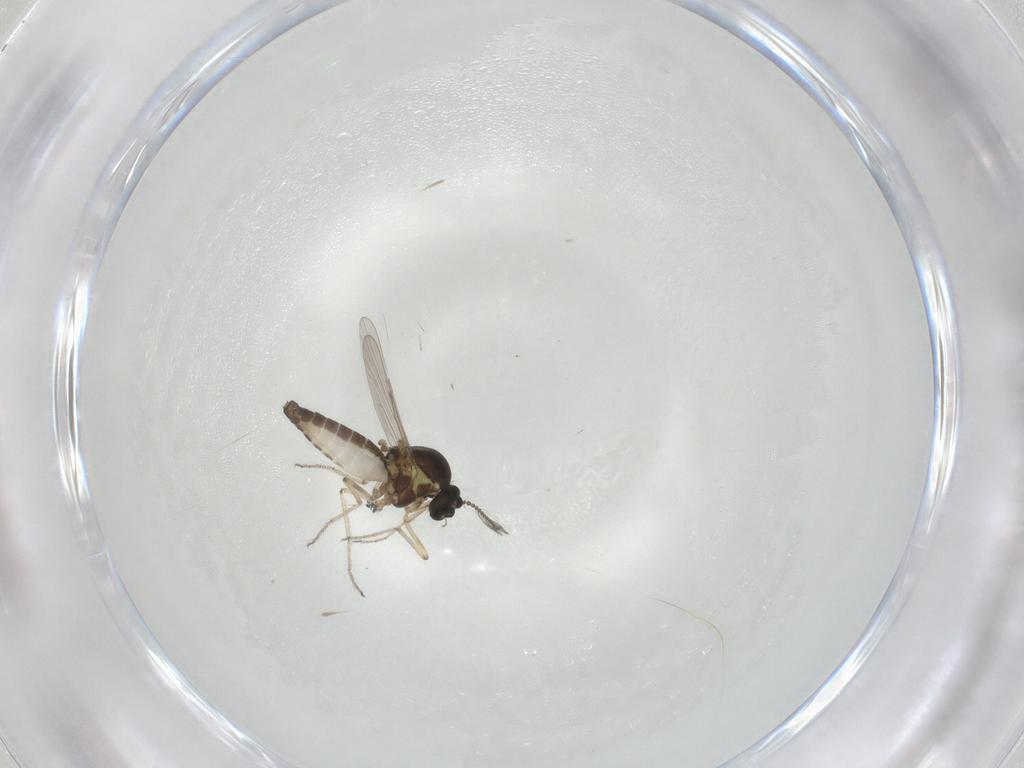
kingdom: Animalia
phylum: Arthropoda
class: Insecta
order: Diptera
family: Ceratopogonidae
